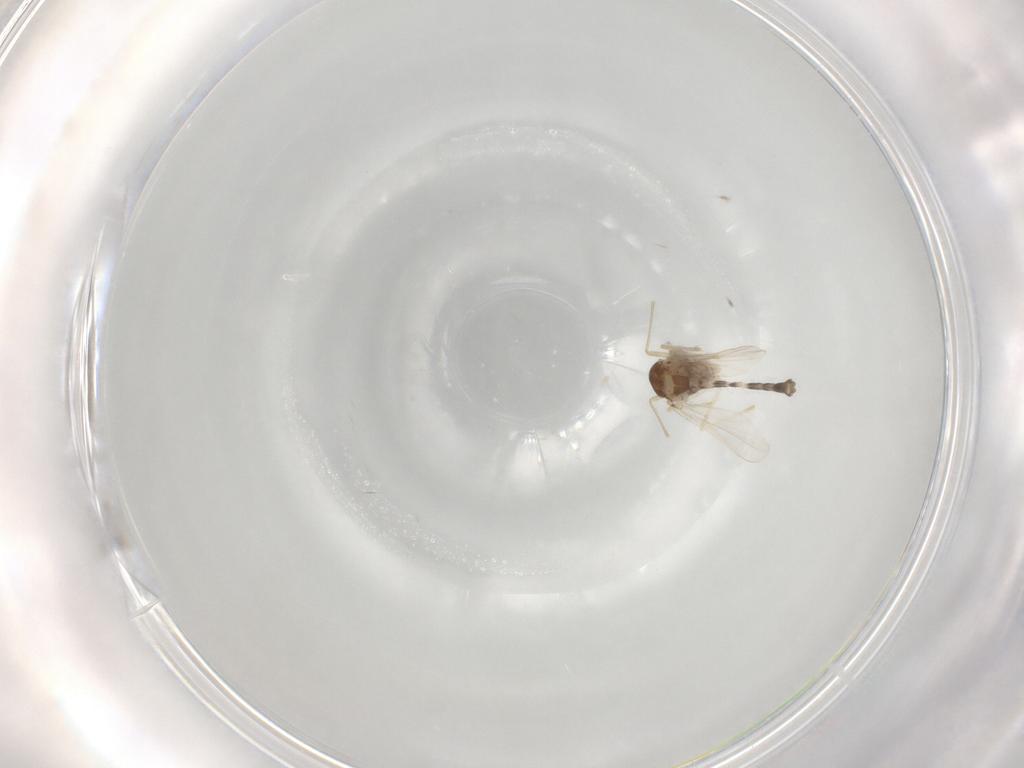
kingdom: Animalia
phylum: Arthropoda
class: Insecta
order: Diptera
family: Chironomidae
